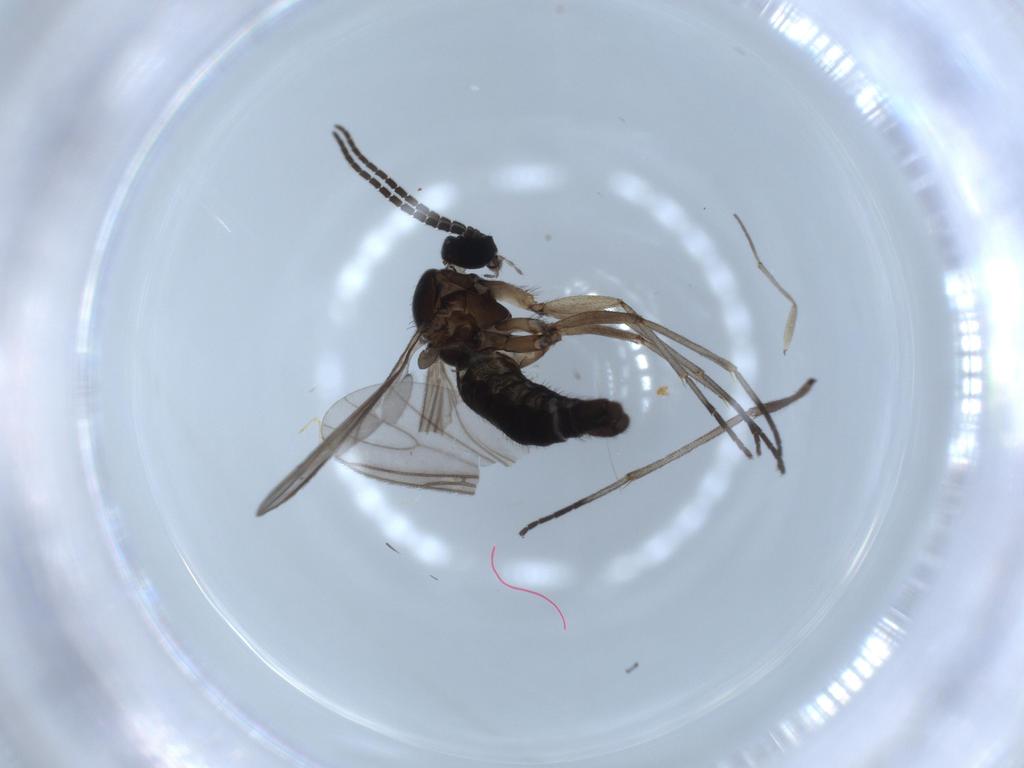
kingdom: Animalia
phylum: Arthropoda
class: Insecta
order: Diptera
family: Sciaridae
